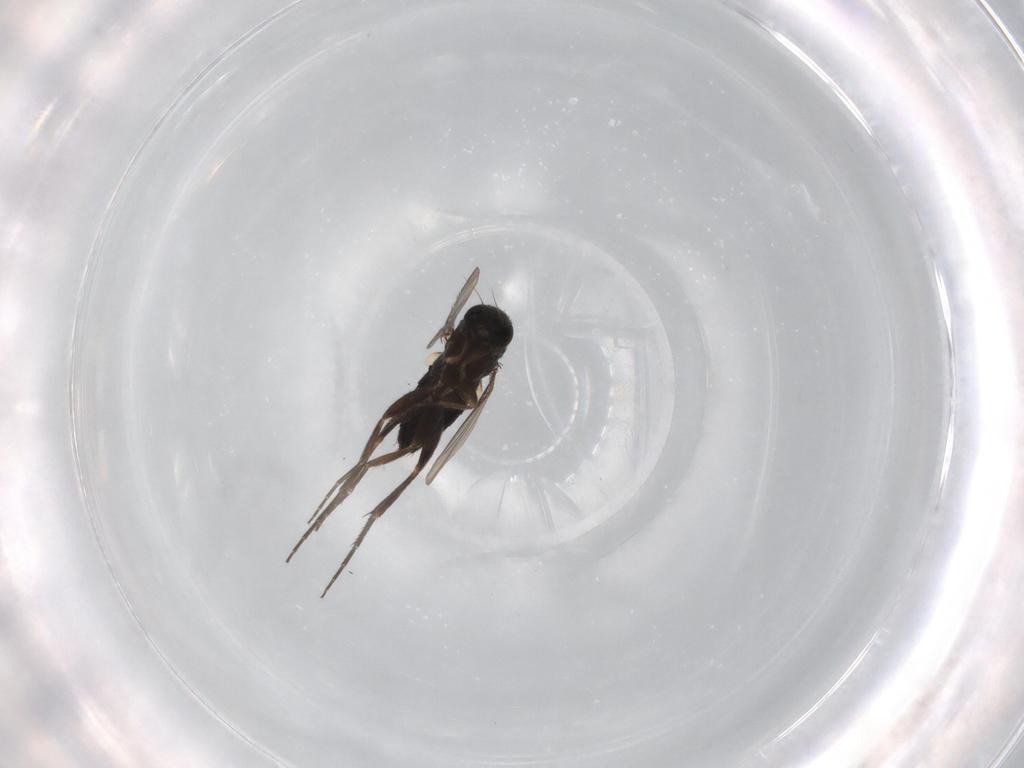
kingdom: Animalia
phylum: Arthropoda
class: Insecta
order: Diptera
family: Phoridae
